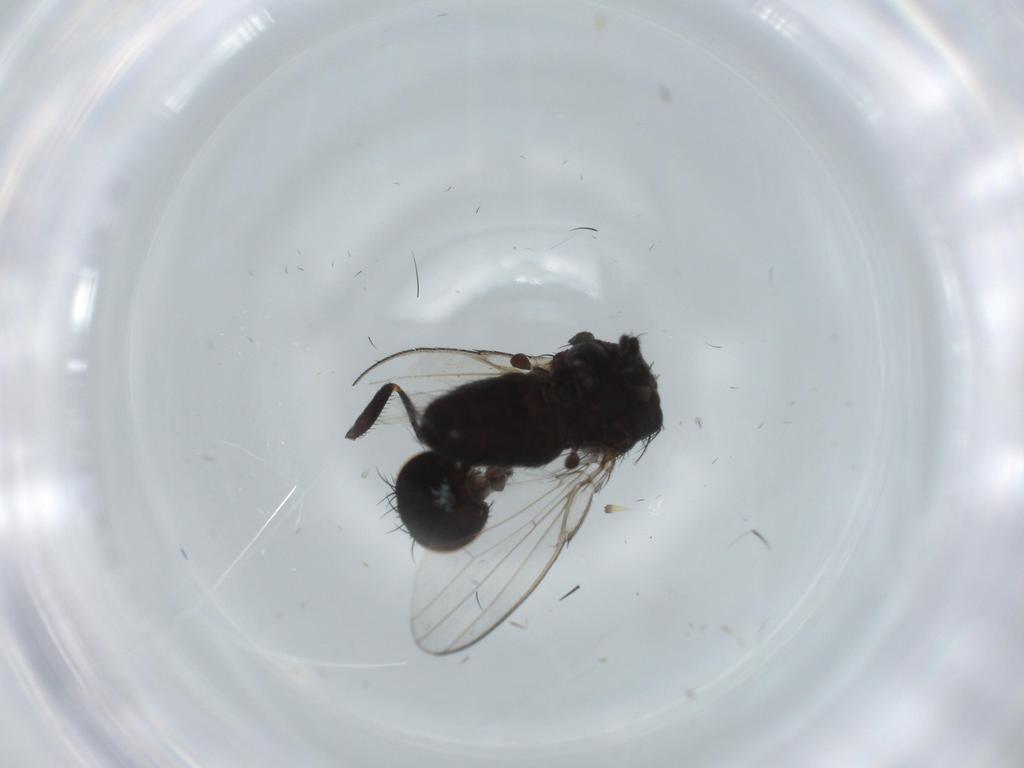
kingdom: Animalia
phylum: Arthropoda
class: Insecta
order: Diptera
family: Milichiidae
